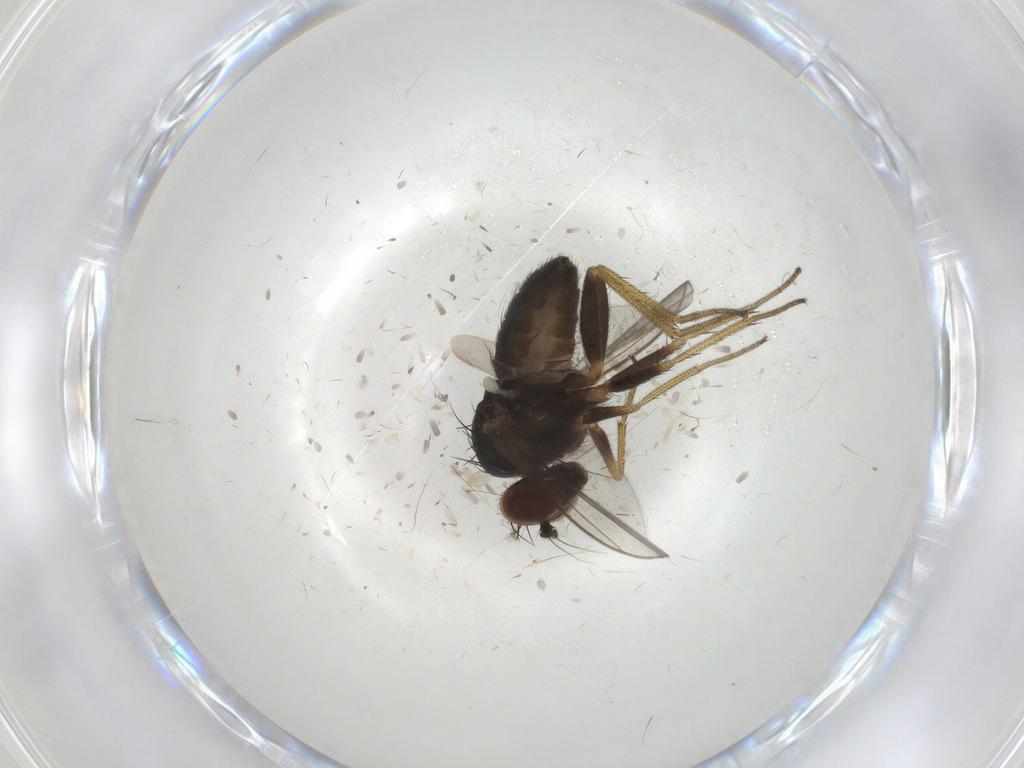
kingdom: Animalia
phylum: Arthropoda
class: Insecta
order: Diptera
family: Dolichopodidae
